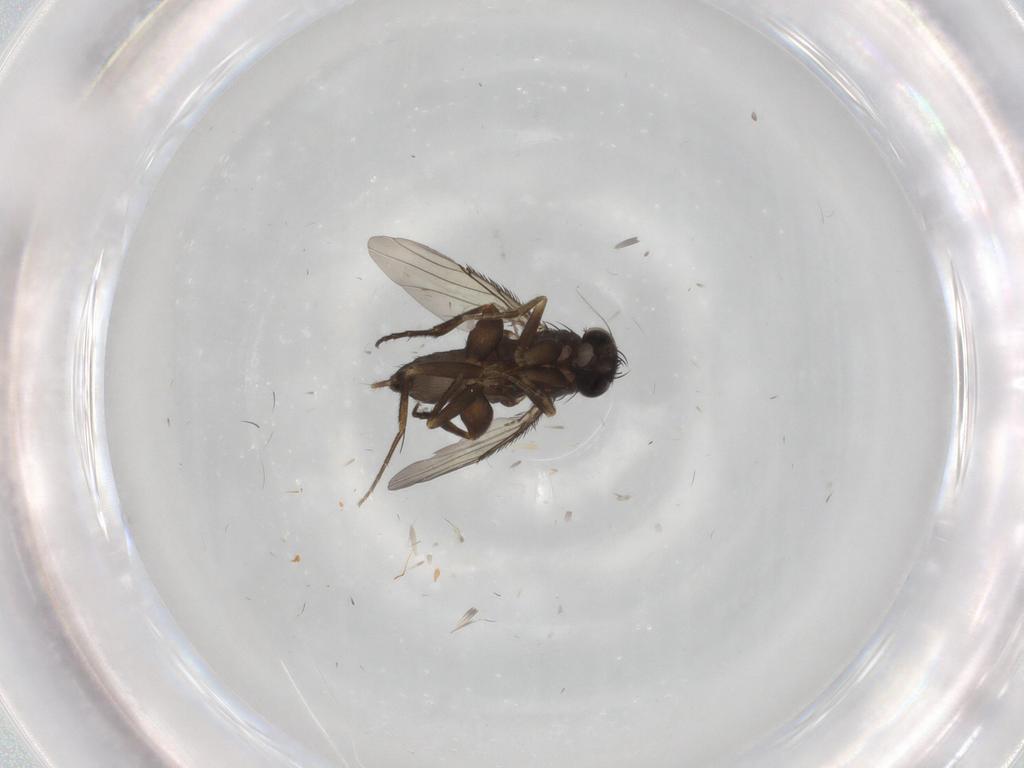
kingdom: Animalia
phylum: Arthropoda
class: Insecta
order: Diptera
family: Phoridae
